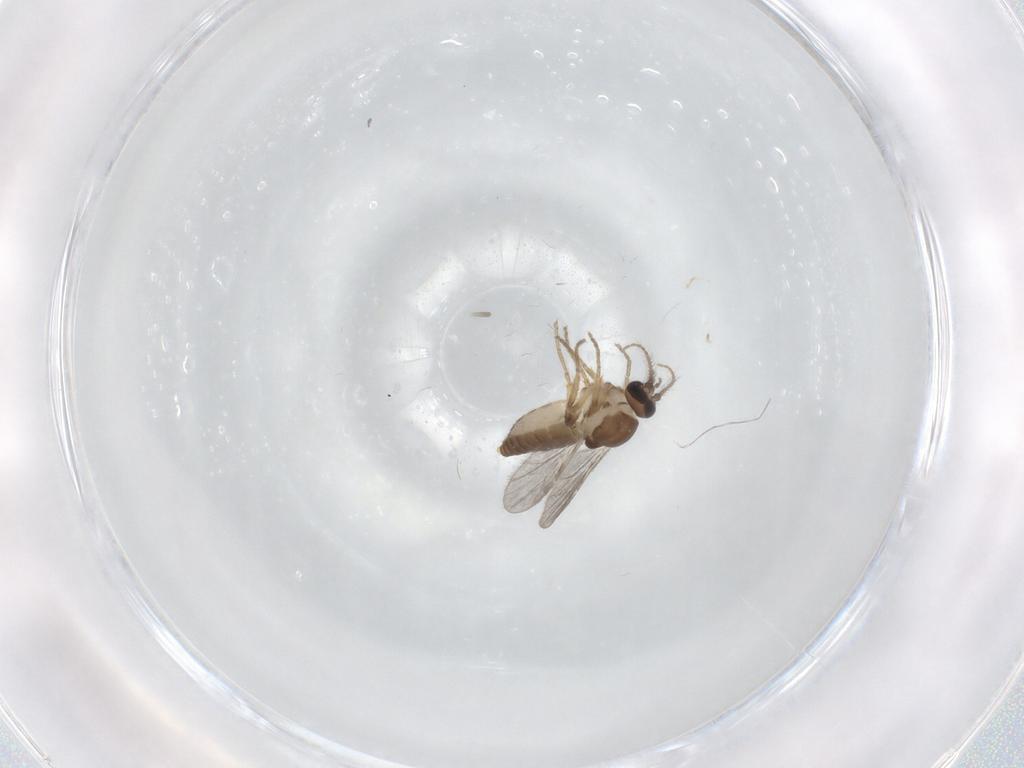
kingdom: Animalia
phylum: Arthropoda
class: Insecta
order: Diptera
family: Ceratopogonidae
